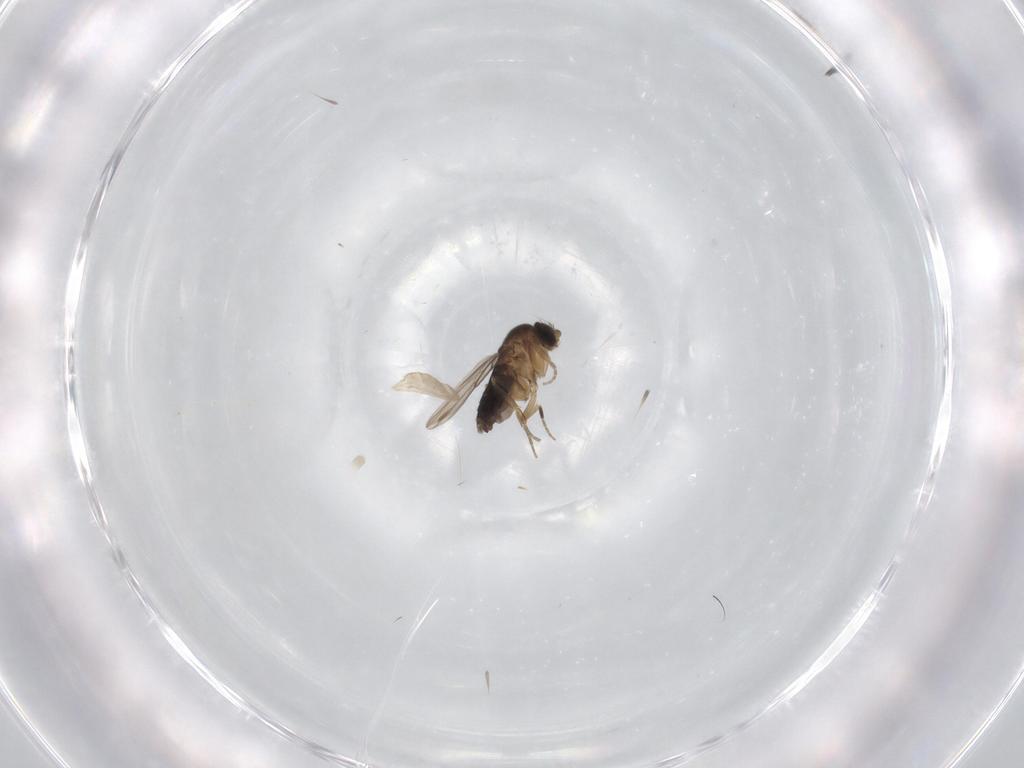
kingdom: Animalia
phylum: Arthropoda
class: Insecta
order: Diptera
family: Phoridae
